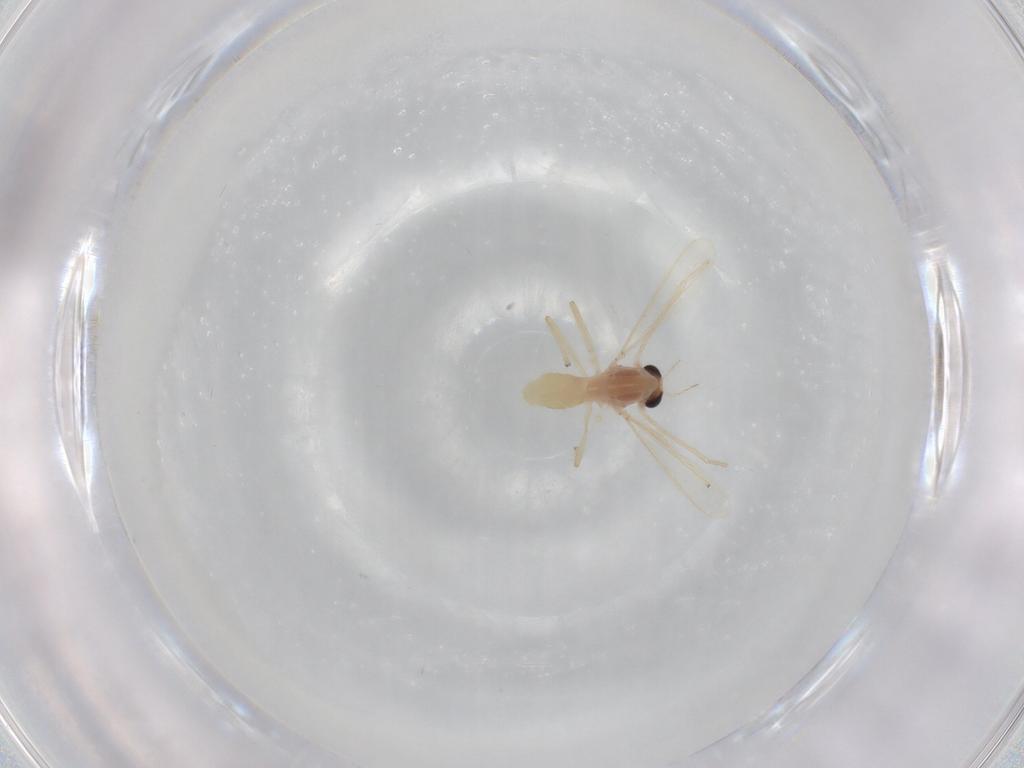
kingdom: Animalia
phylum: Arthropoda
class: Insecta
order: Diptera
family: Chironomidae
